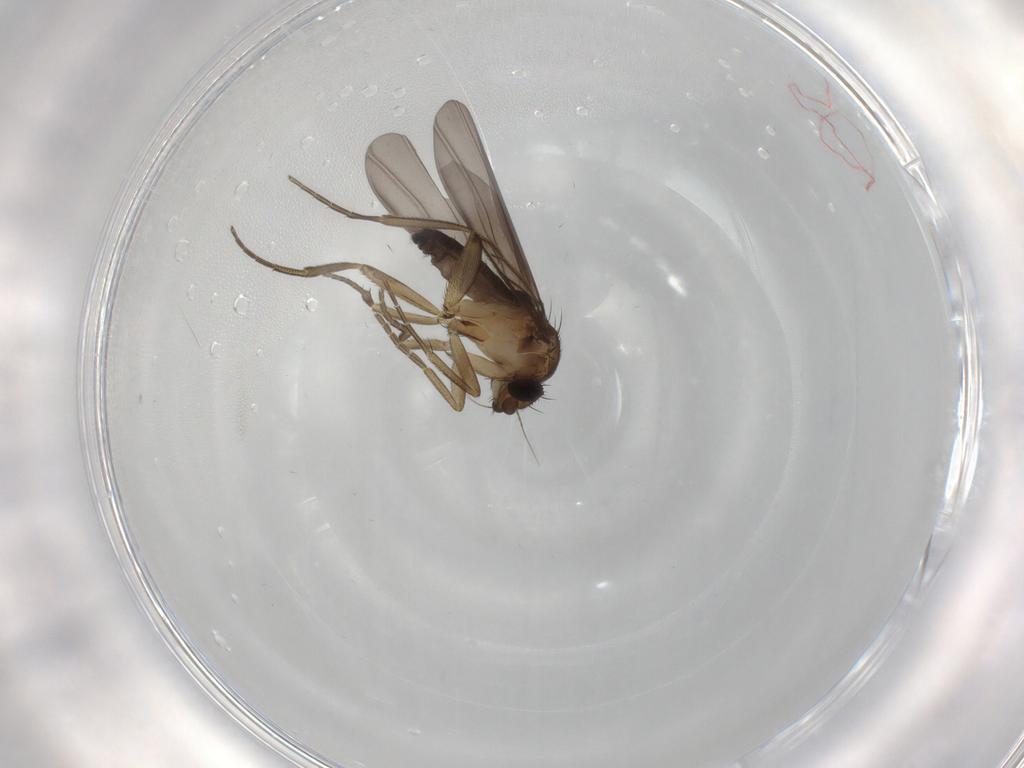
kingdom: Animalia
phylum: Arthropoda
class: Insecta
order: Diptera
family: Phoridae
